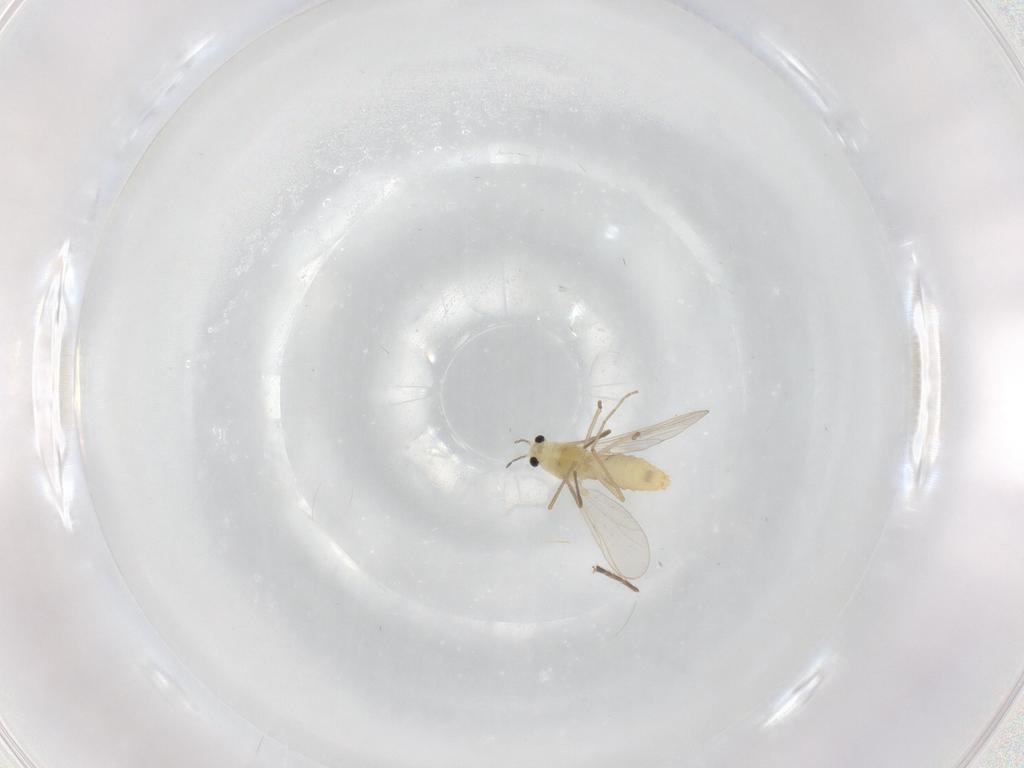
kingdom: Animalia
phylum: Arthropoda
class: Insecta
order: Diptera
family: Empididae
